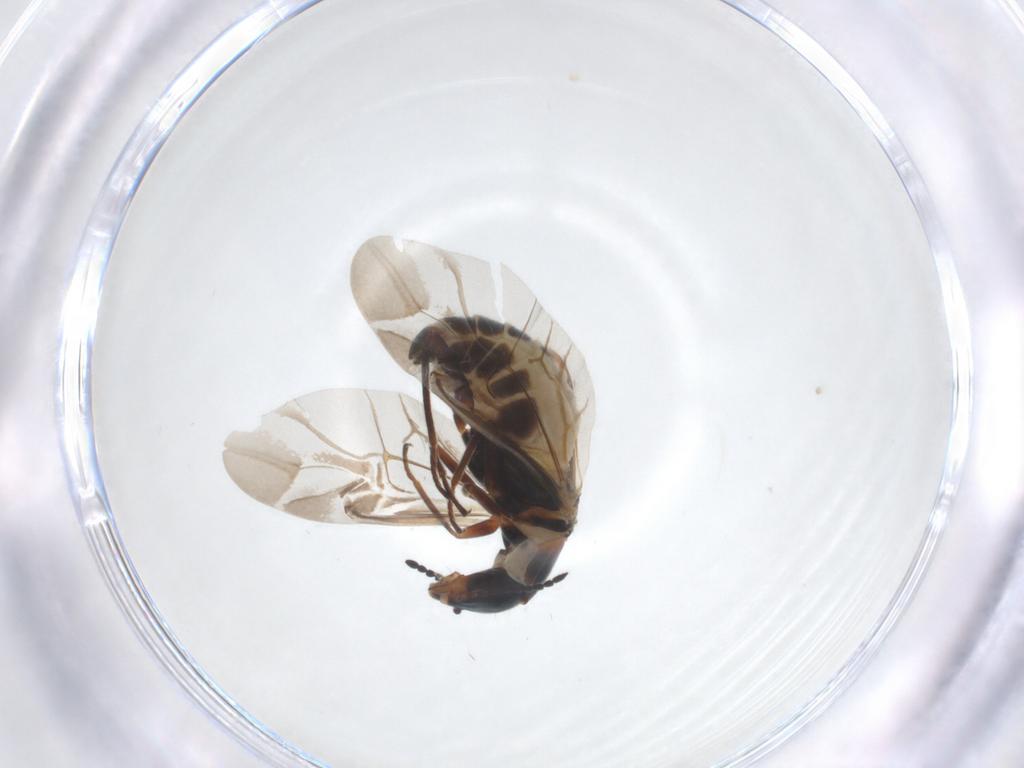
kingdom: Animalia
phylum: Arthropoda
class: Insecta
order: Coleoptera
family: Melyridae
